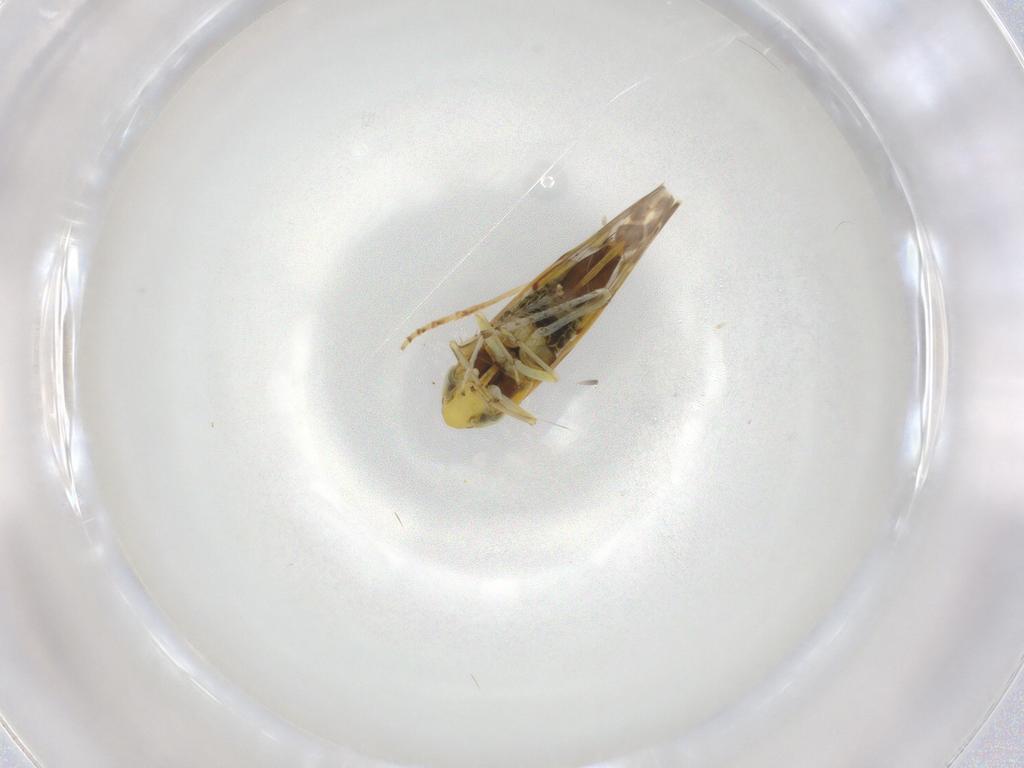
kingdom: Animalia
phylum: Arthropoda
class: Insecta
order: Hemiptera
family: Cicadellidae
